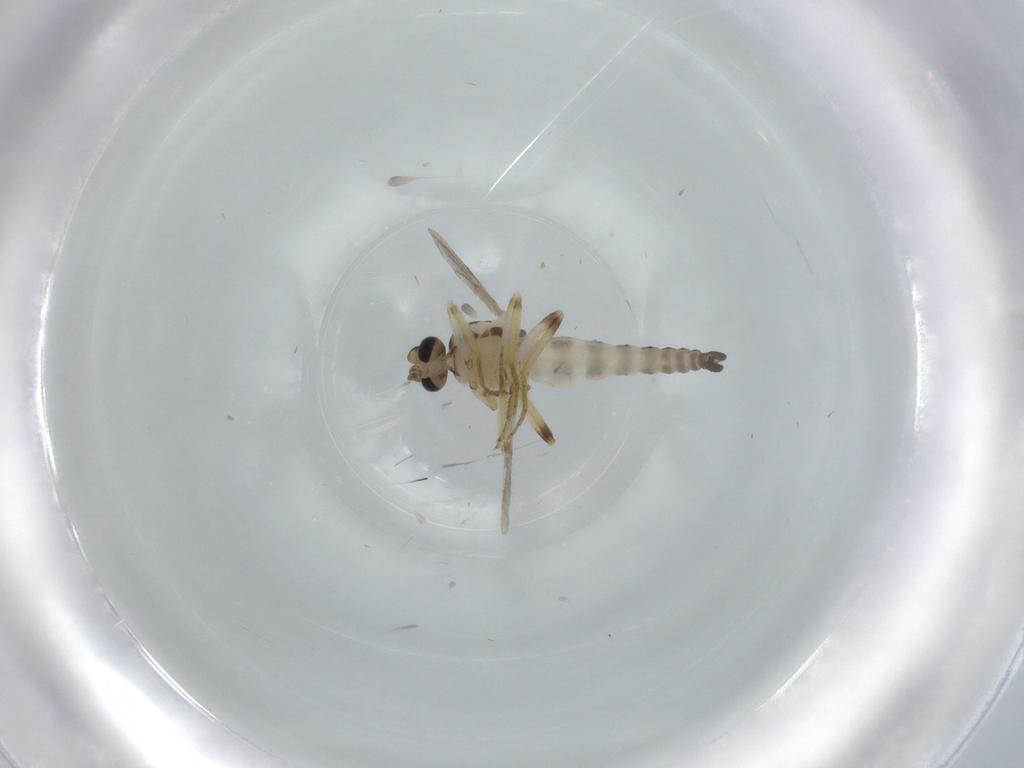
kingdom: Animalia
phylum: Arthropoda
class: Insecta
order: Diptera
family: Ceratopogonidae
